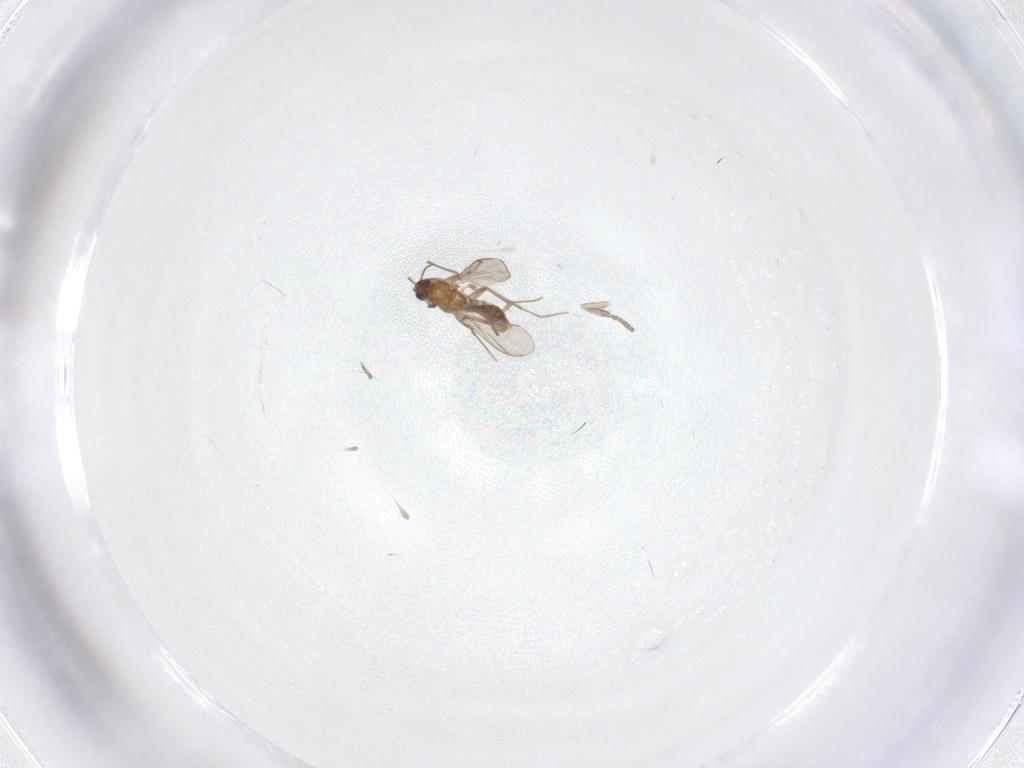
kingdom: Animalia
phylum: Arthropoda
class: Insecta
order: Diptera
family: Chironomidae
